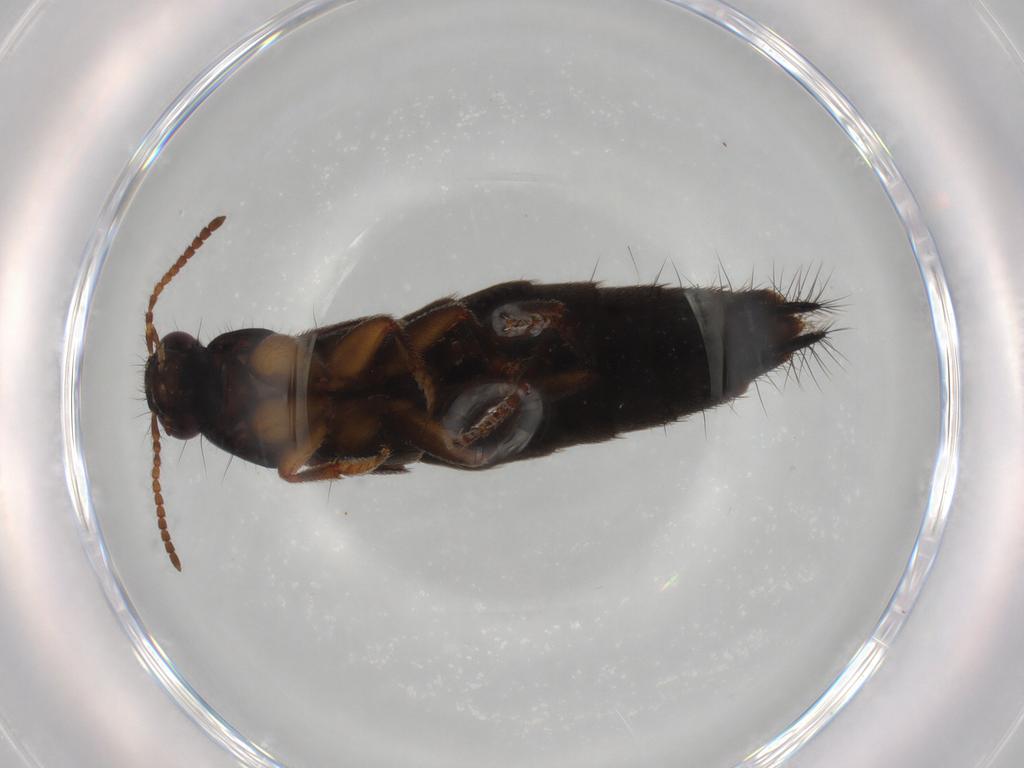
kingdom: Animalia
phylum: Arthropoda
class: Insecta
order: Coleoptera
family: Staphylinidae
